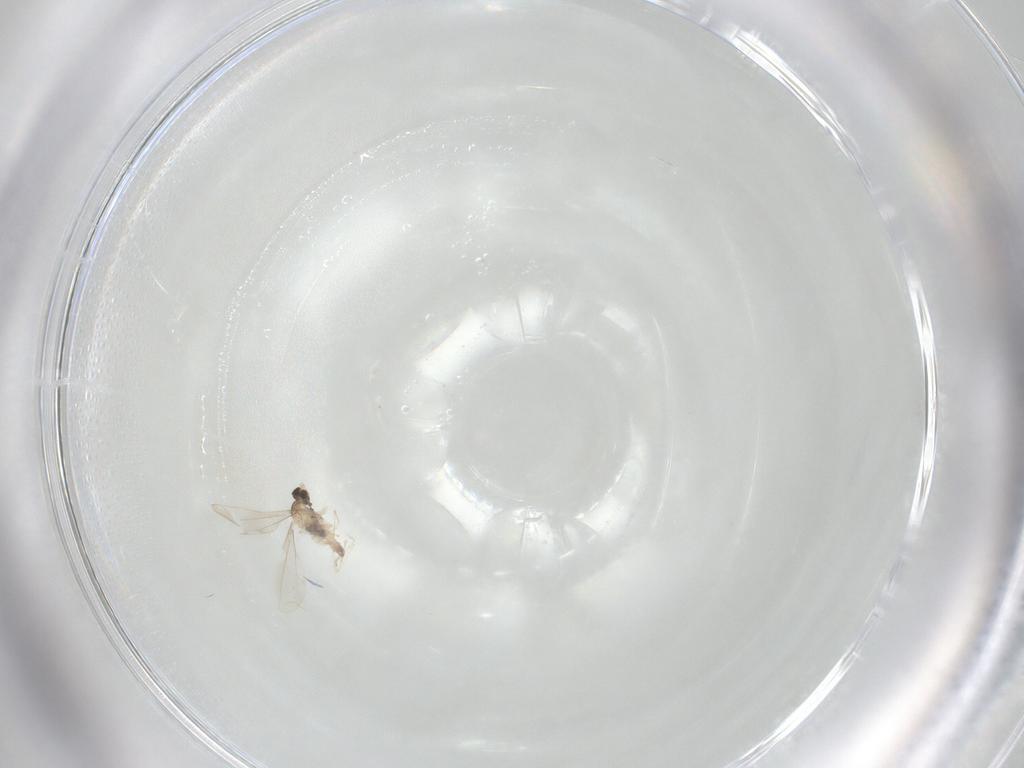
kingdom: Animalia
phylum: Arthropoda
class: Insecta
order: Diptera
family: Cecidomyiidae
